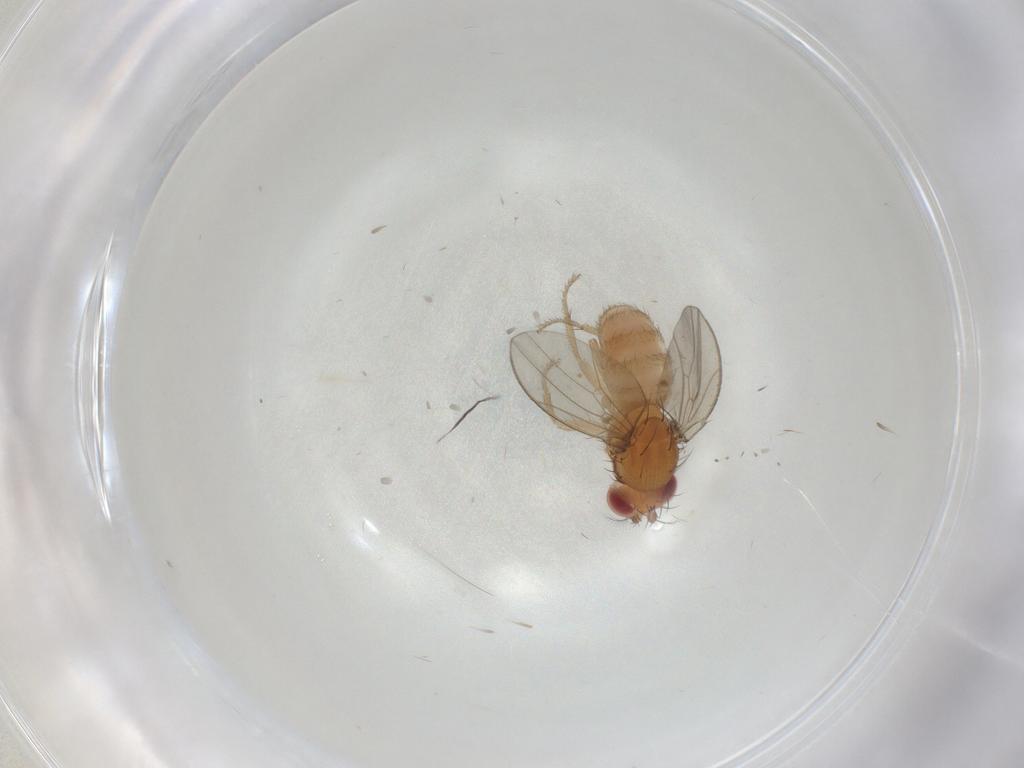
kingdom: Animalia
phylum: Arthropoda
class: Insecta
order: Diptera
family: Drosophilidae
